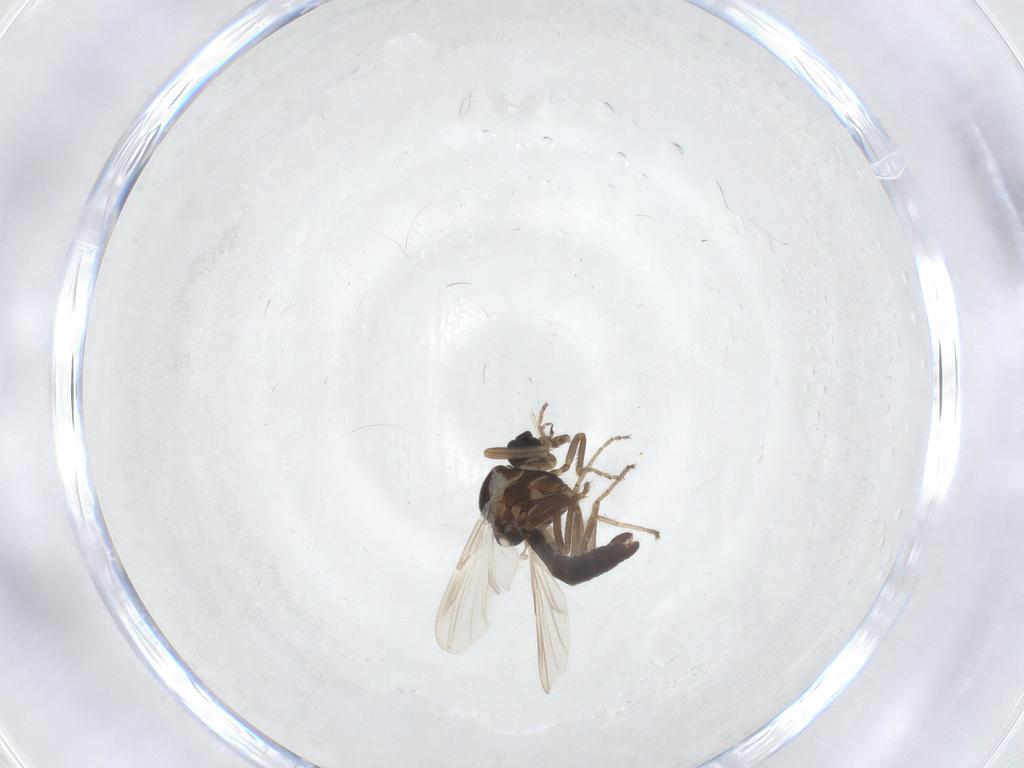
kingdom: Animalia
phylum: Arthropoda
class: Insecta
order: Diptera
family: Ceratopogonidae
